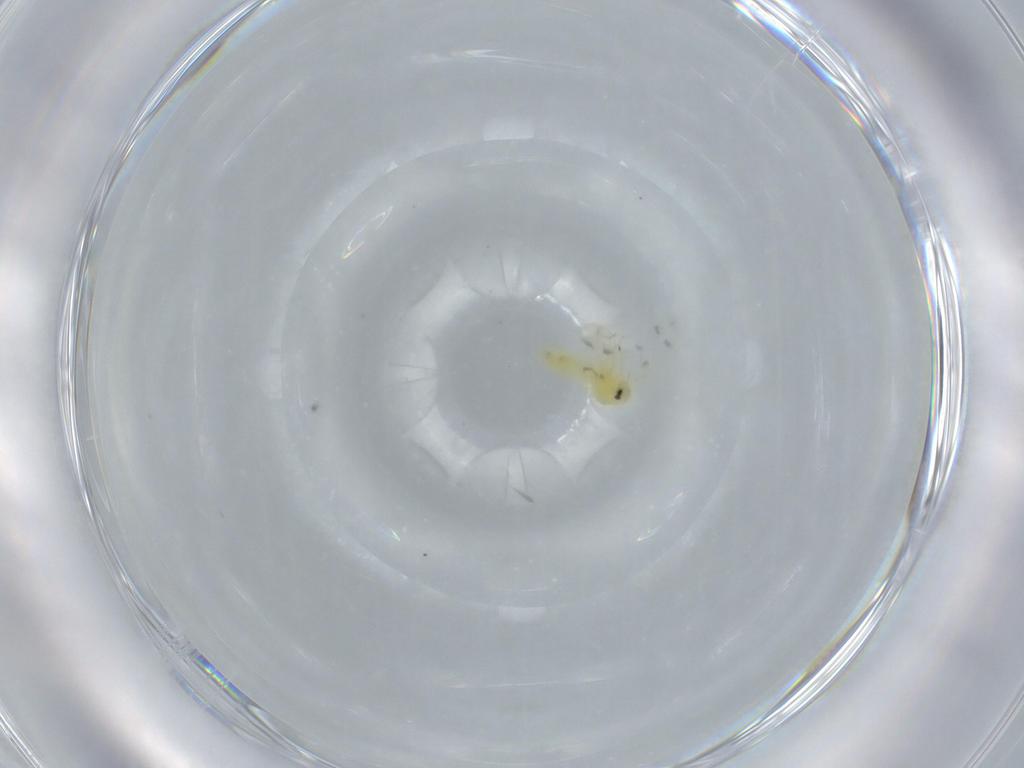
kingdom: Animalia
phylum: Arthropoda
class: Insecta
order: Hemiptera
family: Aleyrodidae
